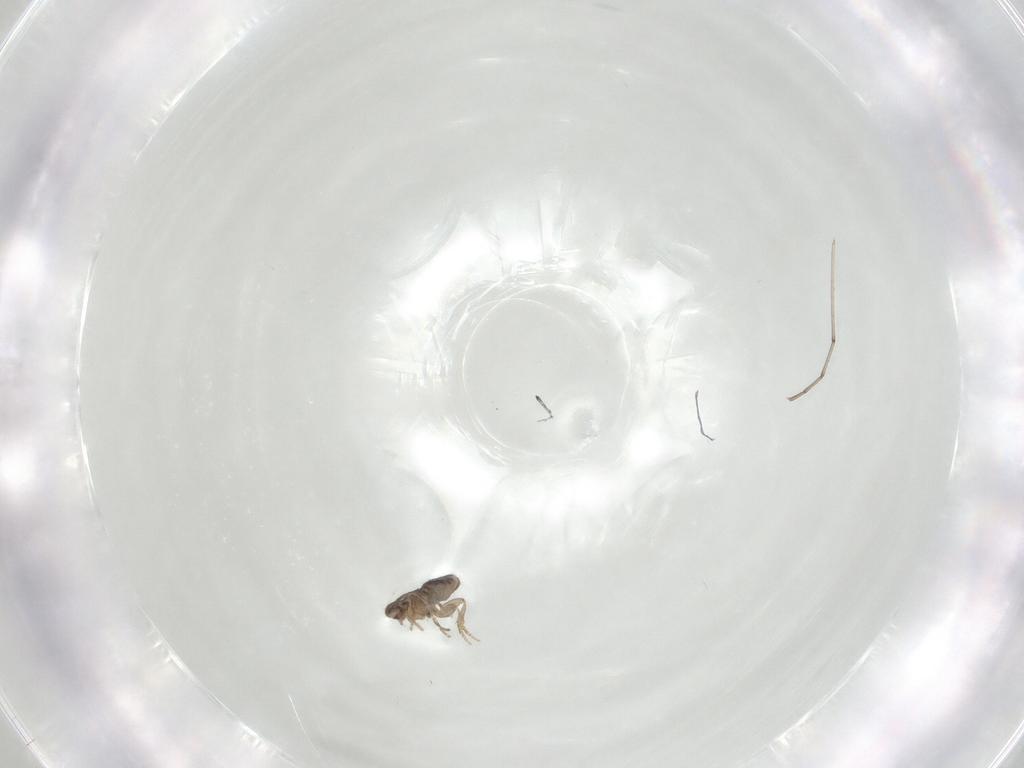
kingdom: Animalia
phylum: Arthropoda
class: Insecta
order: Diptera
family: Cecidomyiidae
